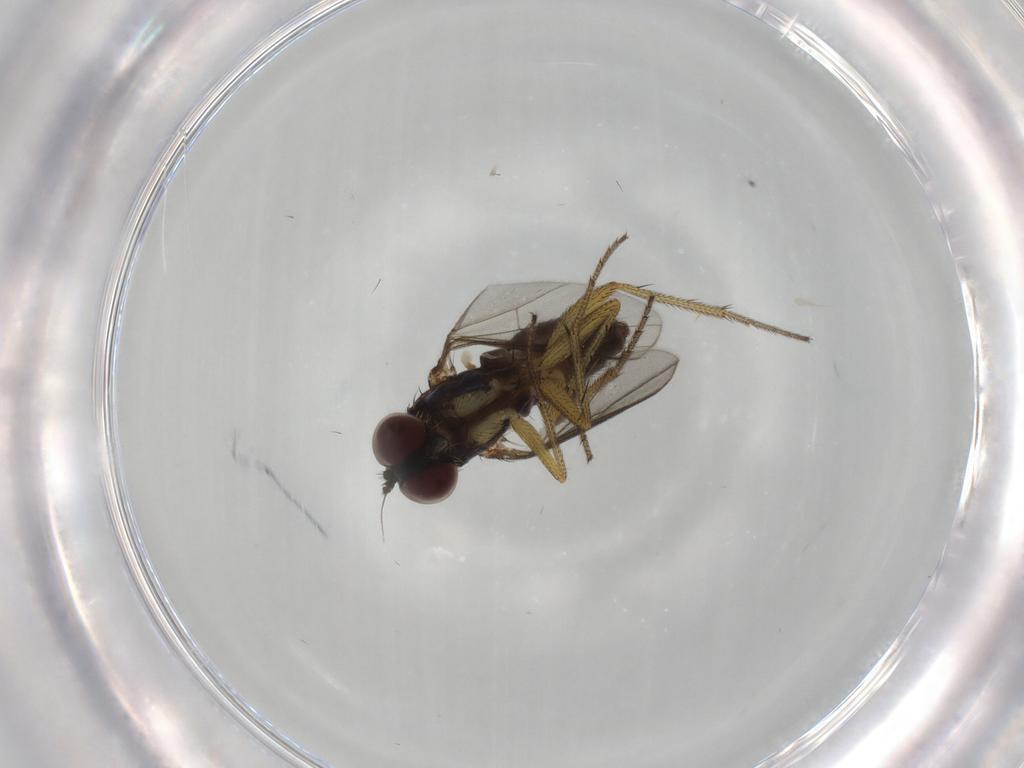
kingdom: Animalia
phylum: Arthropoda
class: Insecta
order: Diptera
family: Dolichopodidae
